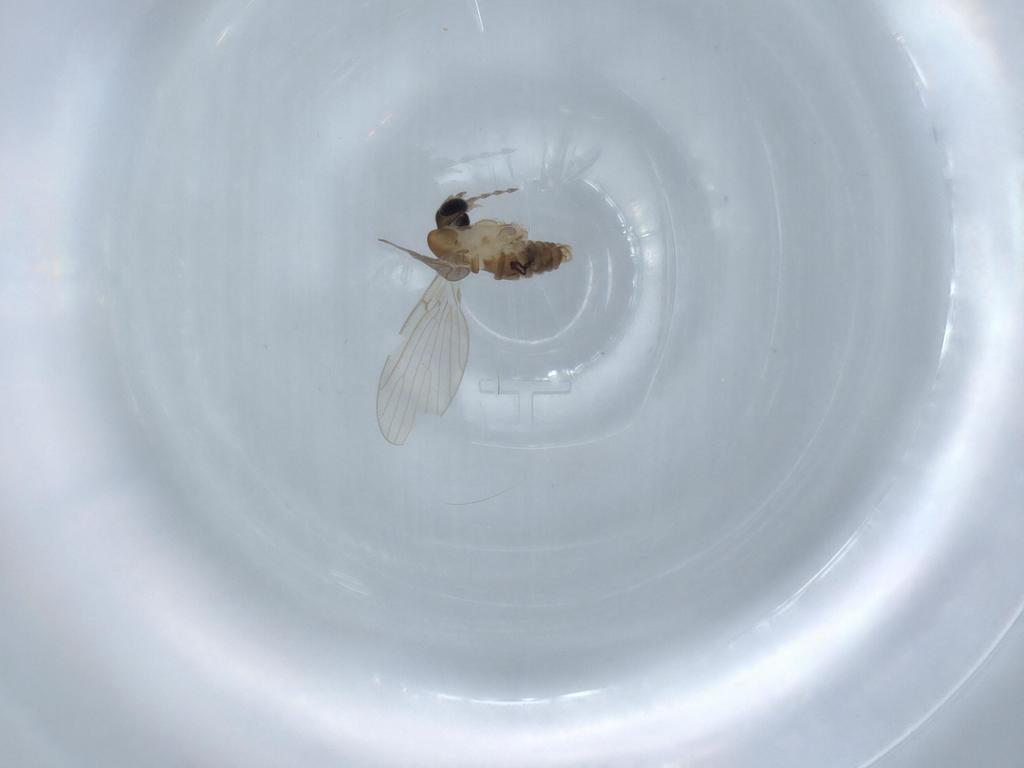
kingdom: Animalia
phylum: Arthropoda
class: Insecta
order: Diptera
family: Psychodidae
